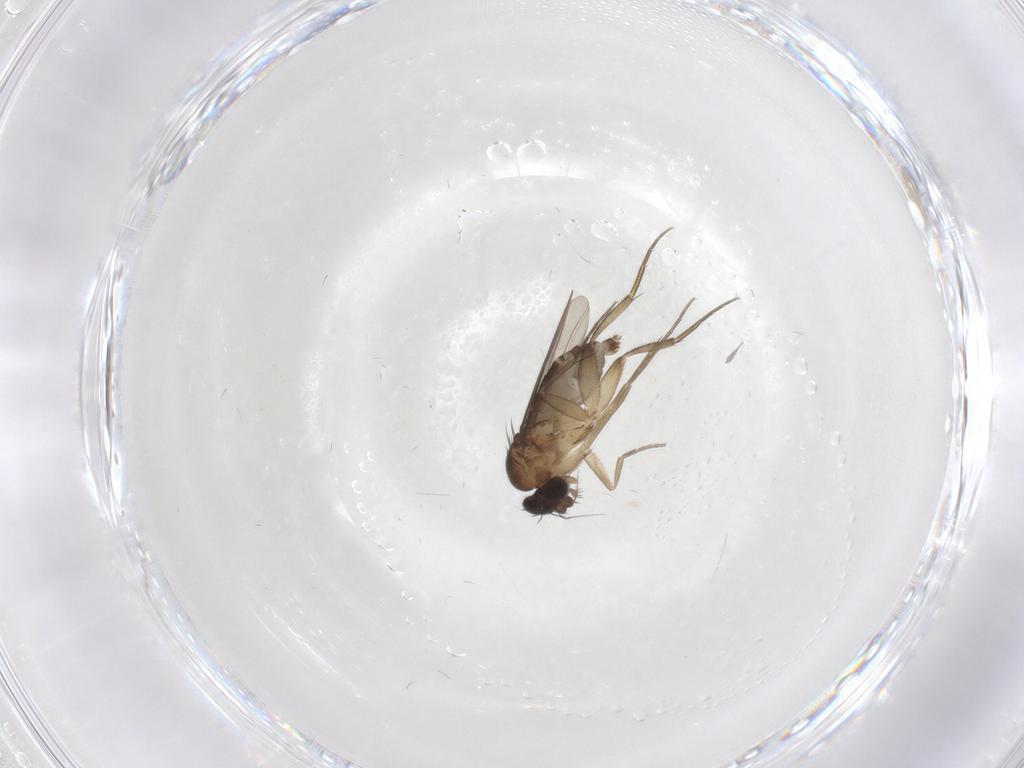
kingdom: Animalia
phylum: Arthropoda
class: Insecta
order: Diptera
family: Phoridae
